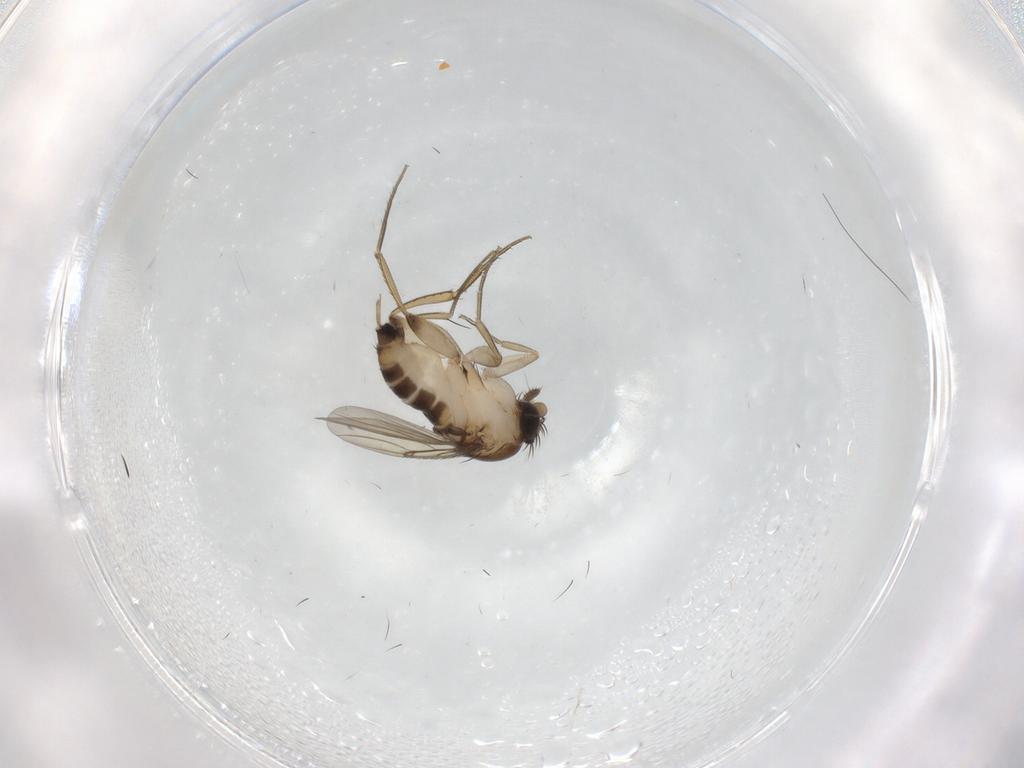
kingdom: Animalia
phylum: Arthropoda
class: Insecta
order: Diptera
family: Phoridae
